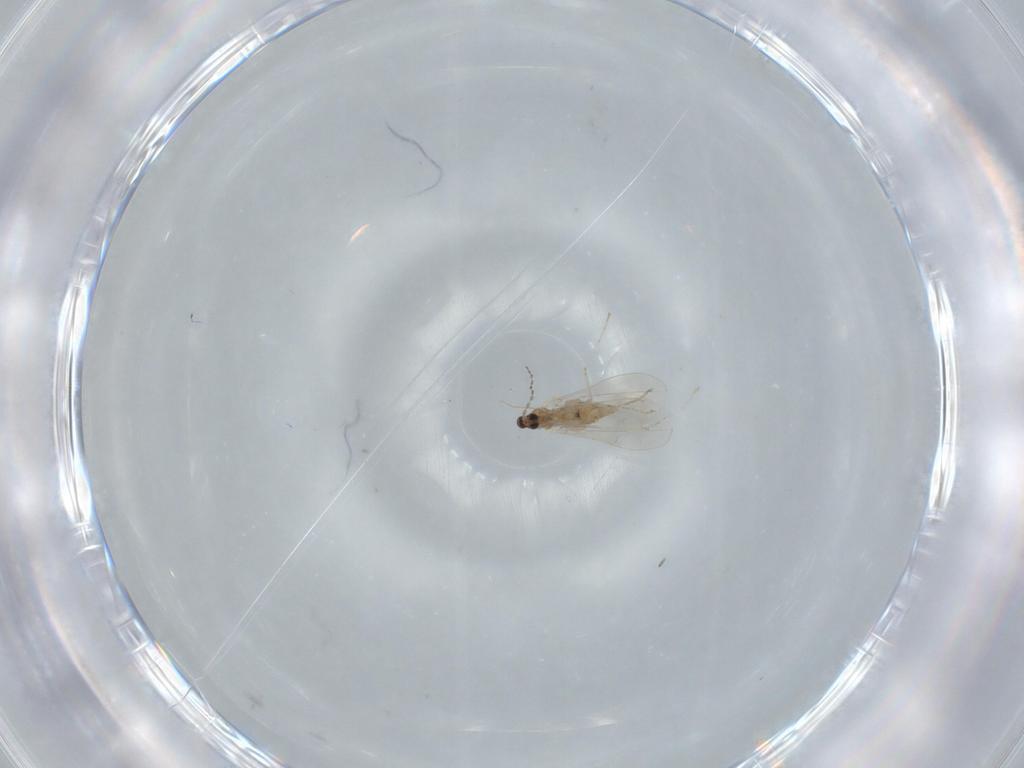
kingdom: Animalia
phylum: Arthropoda
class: Insecta
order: Diptera
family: Cecidomyiidae
